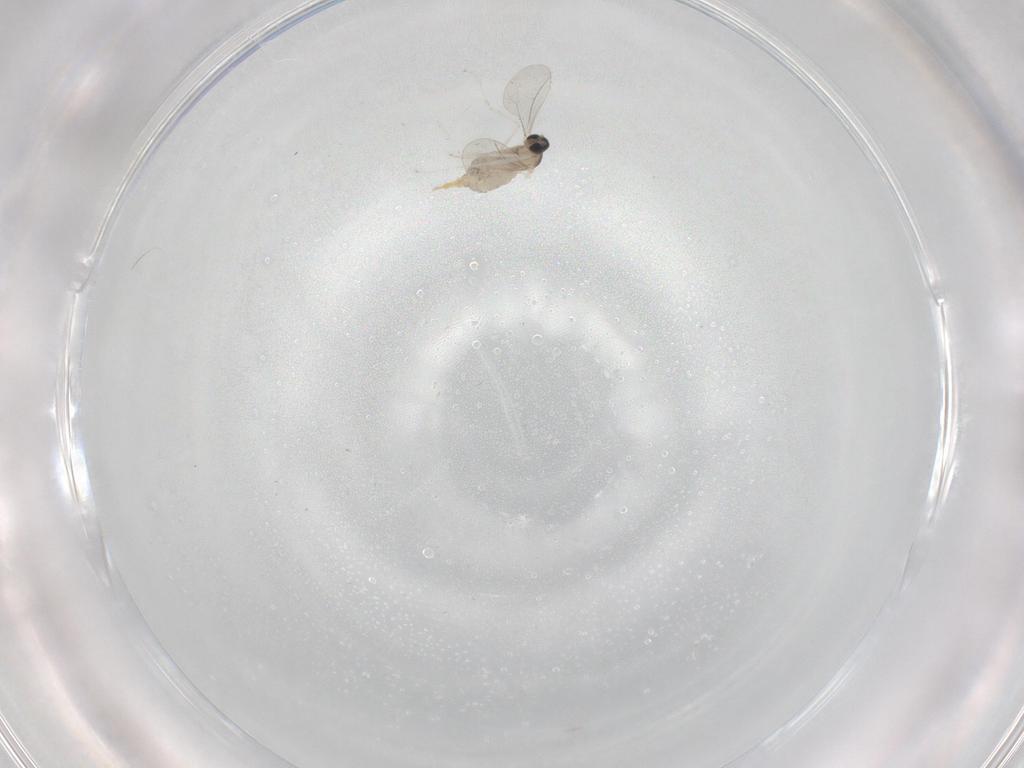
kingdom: Animalia
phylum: Arthropoda
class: Insecta
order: Diptera
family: Cecidomyiidae
